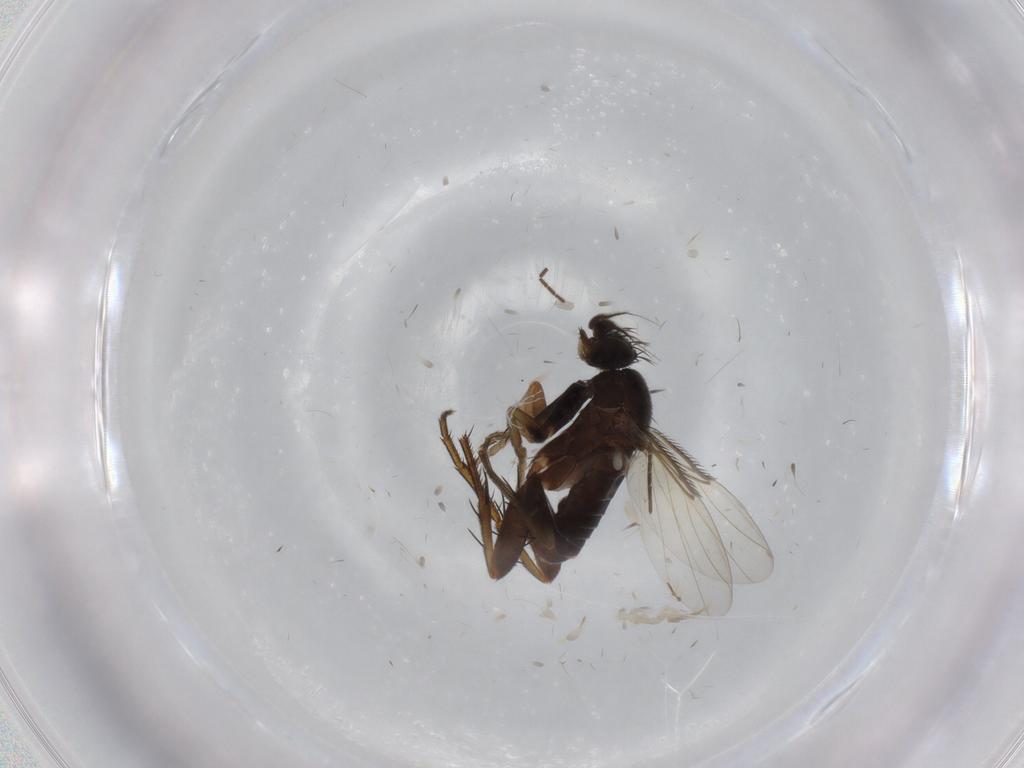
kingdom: Animalia
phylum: Arthropoda
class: Insecta
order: Diptera
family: Phoridae
